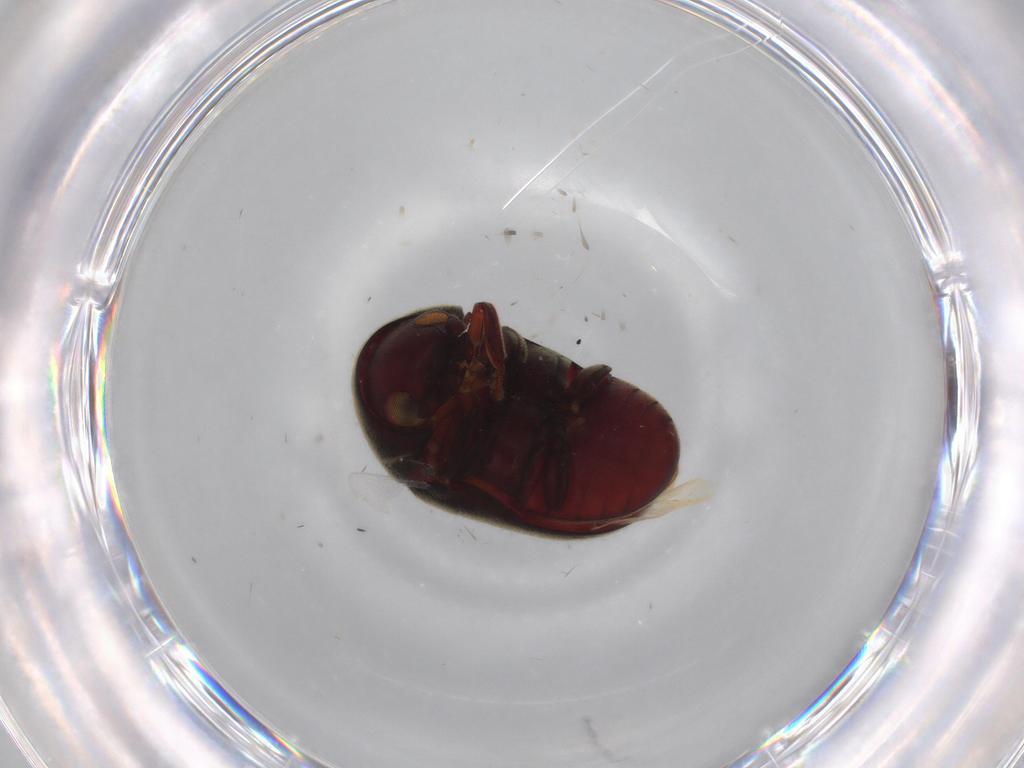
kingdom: Animalia
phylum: Arthropoda
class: Insecta
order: Coleoptera
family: Ptinidae
